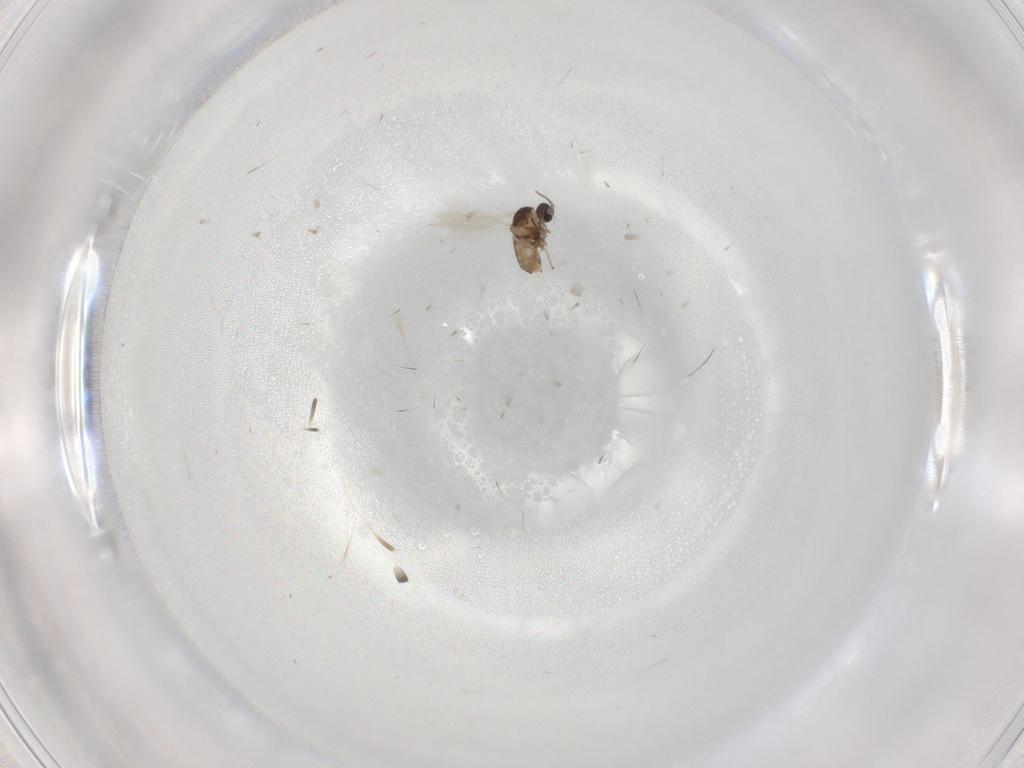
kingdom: Animalia
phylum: Arthropoda
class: Insecta
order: Diptera
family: Cecidomyiidae
